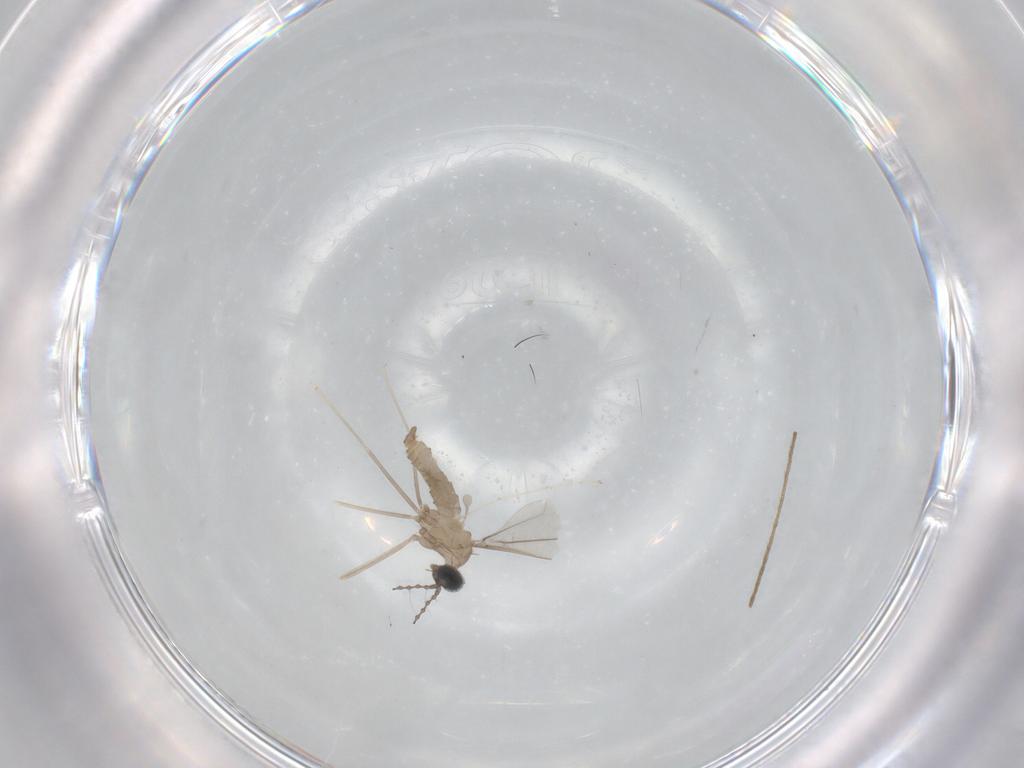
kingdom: Animalia
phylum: Arthropoda
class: Insecta
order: Diptera
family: Limoniidae
